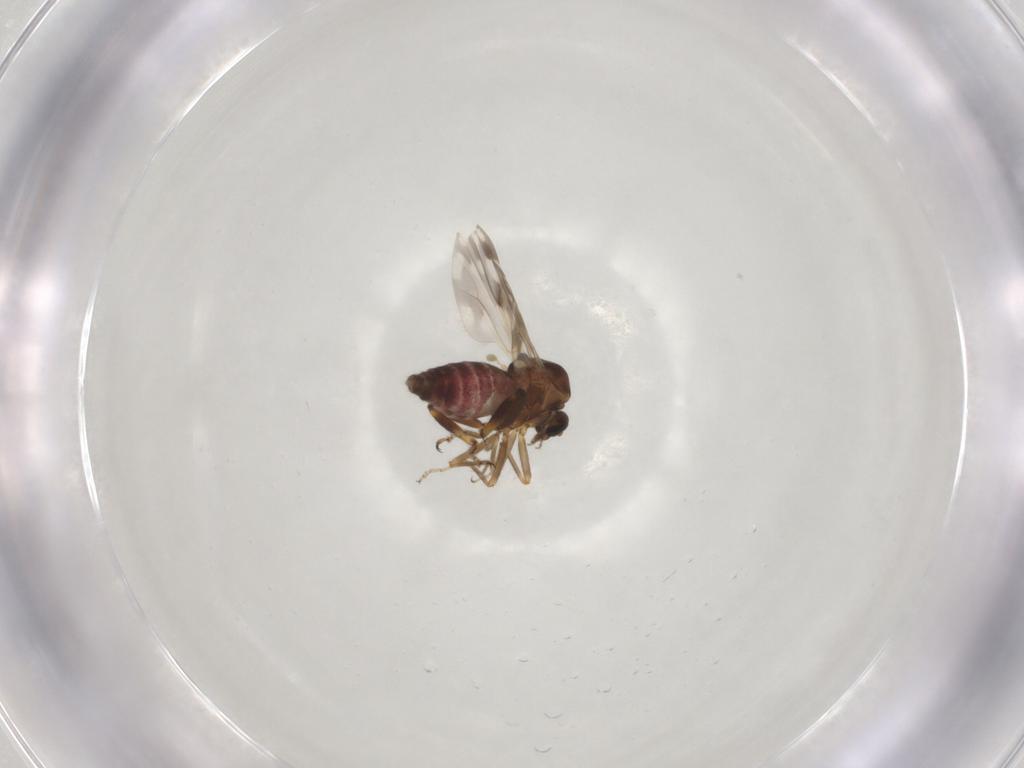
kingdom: Animalia
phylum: Arthropoda
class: Insecta
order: Diptera
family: Ceratopogonidae
